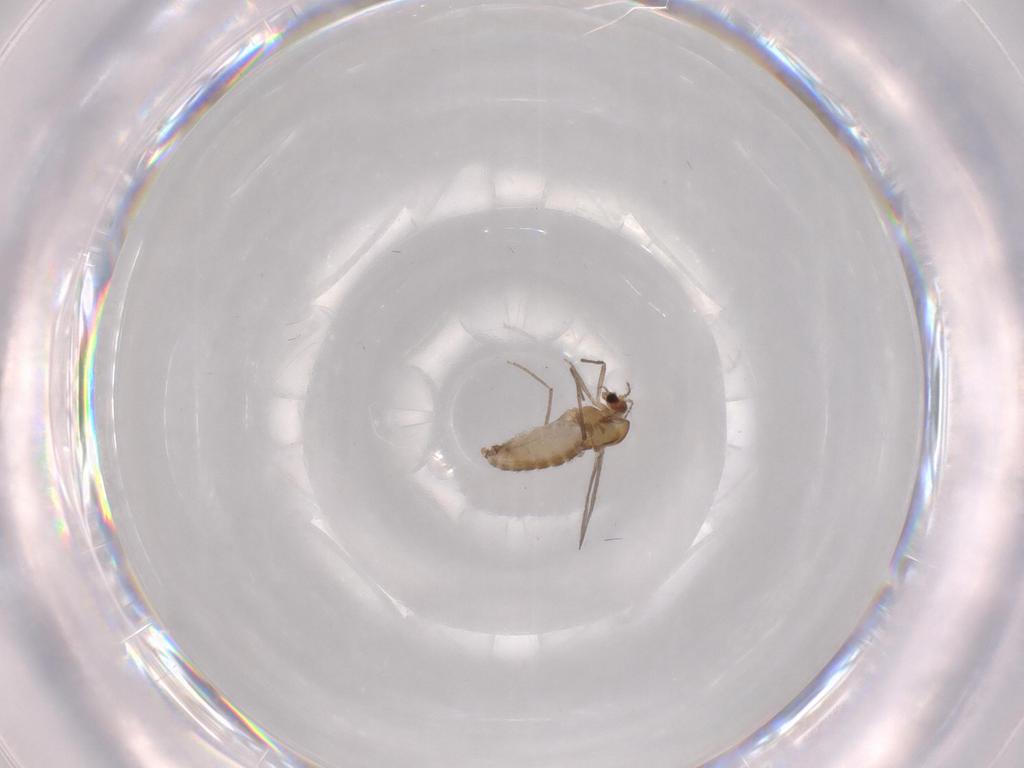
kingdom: Animalia
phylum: Arthropoda
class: Insecta
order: Diptera
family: Chironomidae
